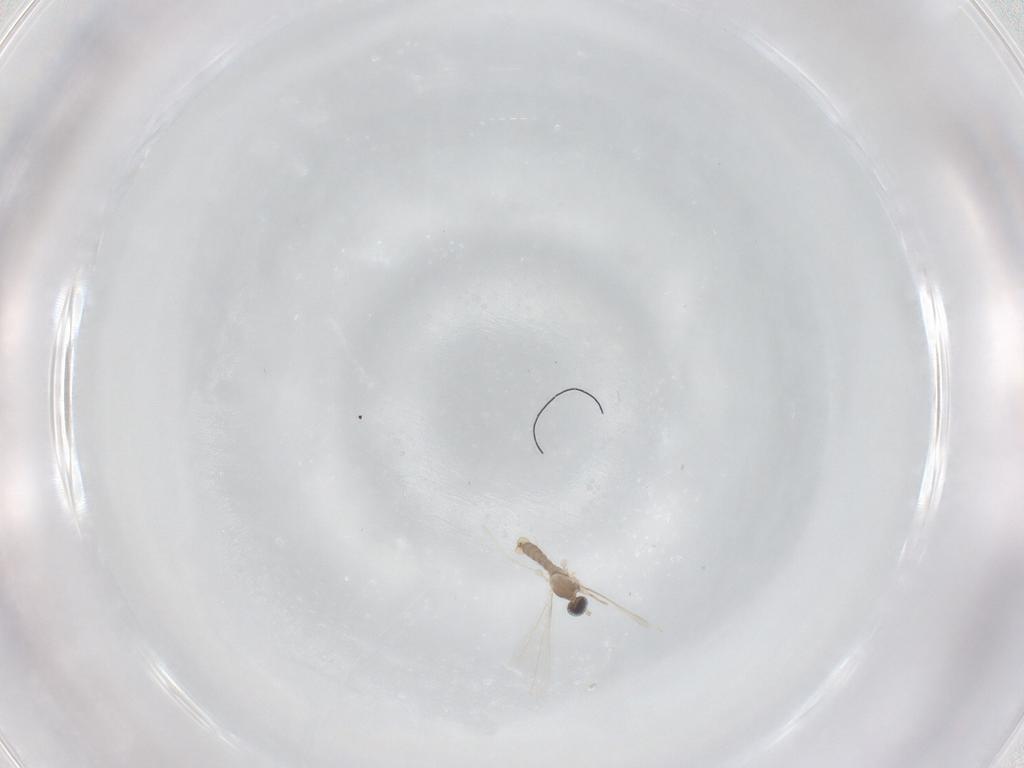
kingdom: Animalia
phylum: Arthropoda
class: Insecta
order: Diptera
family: Cecidomyiidae
